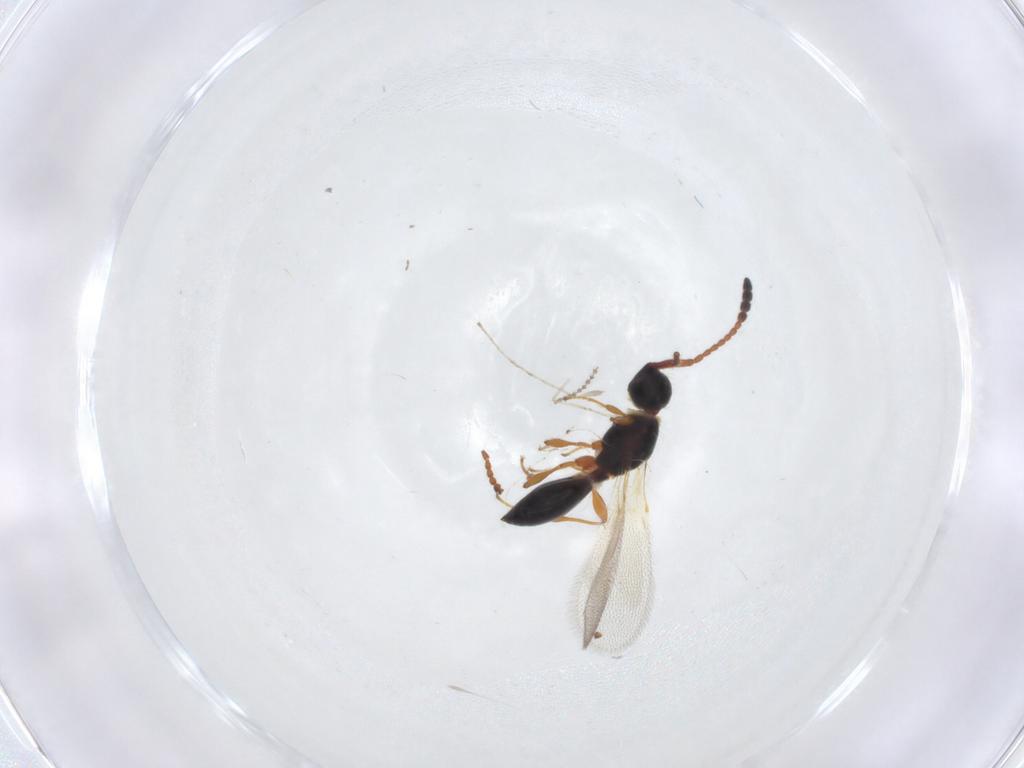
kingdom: Animalia
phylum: Arthropoda
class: Insecta
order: Hymenoptera
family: Diapriidae
